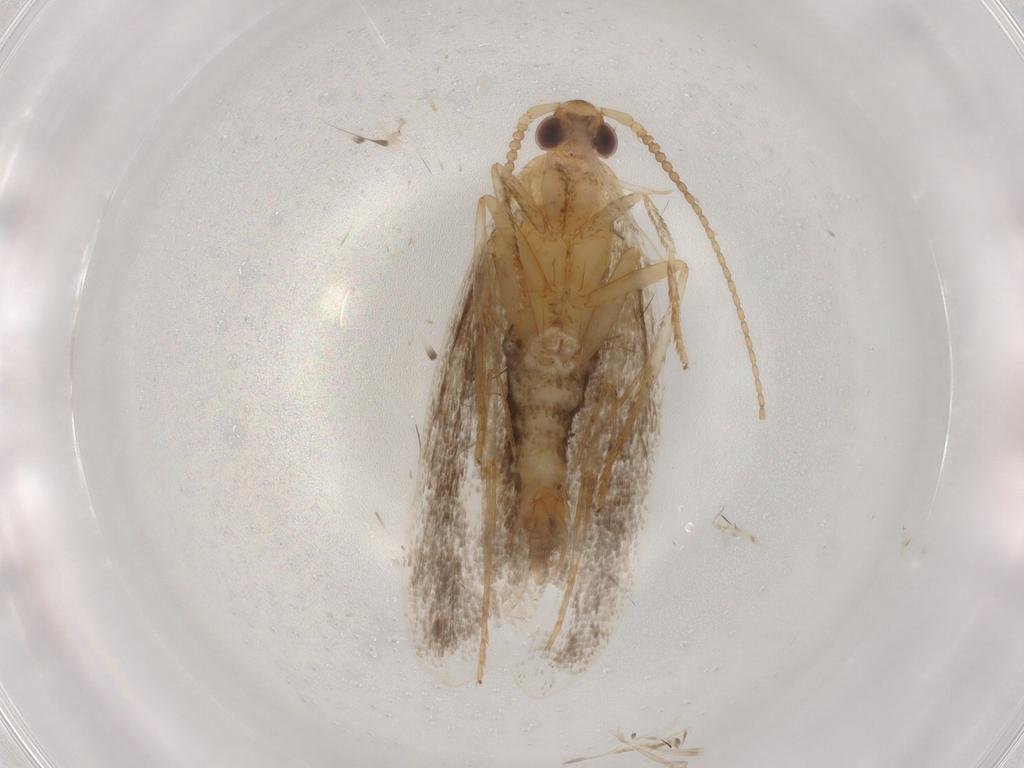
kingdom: Animalia
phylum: Arthropoda
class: Insecta
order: Lepidoptera
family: Lecithoceridae
